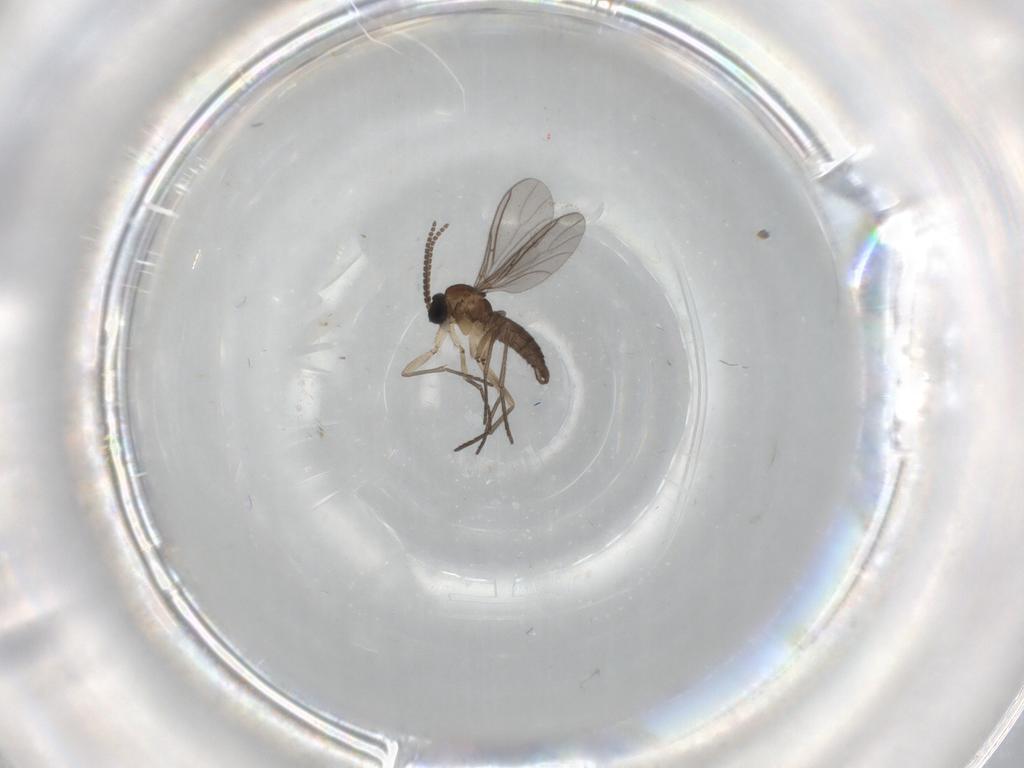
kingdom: Animalia
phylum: Arthropoda
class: Insecta
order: Diptera
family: Sciaridae
